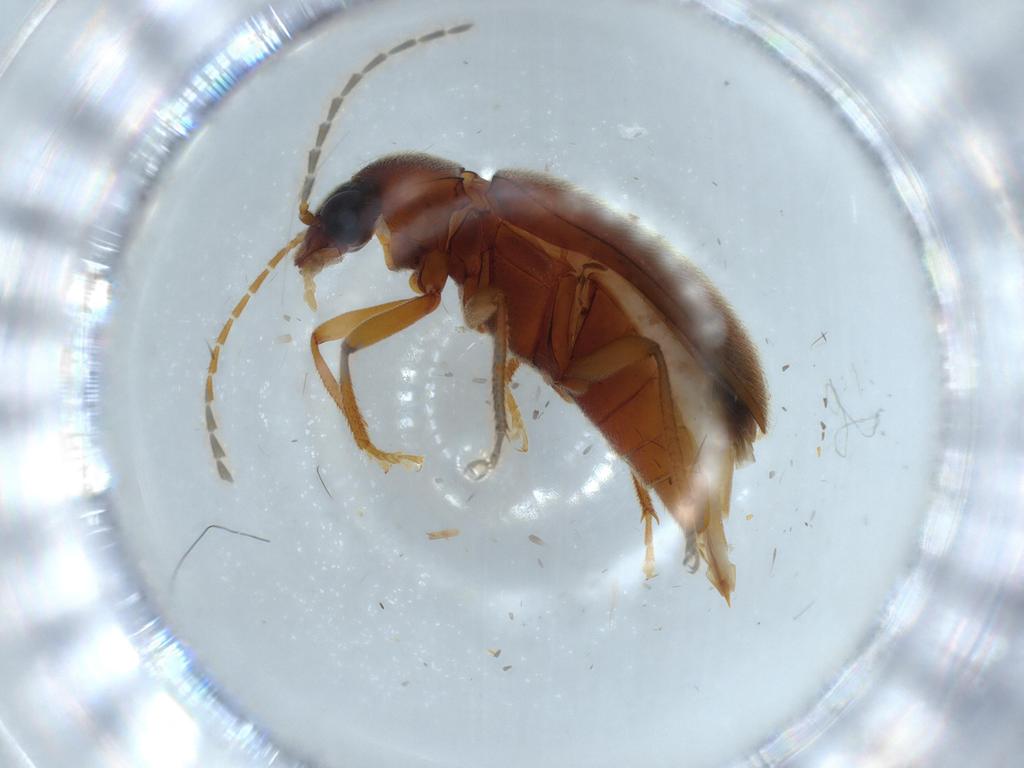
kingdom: Animalia
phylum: Arthropoda
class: Insecta
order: Coleoptera
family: Ptilodactylidae
